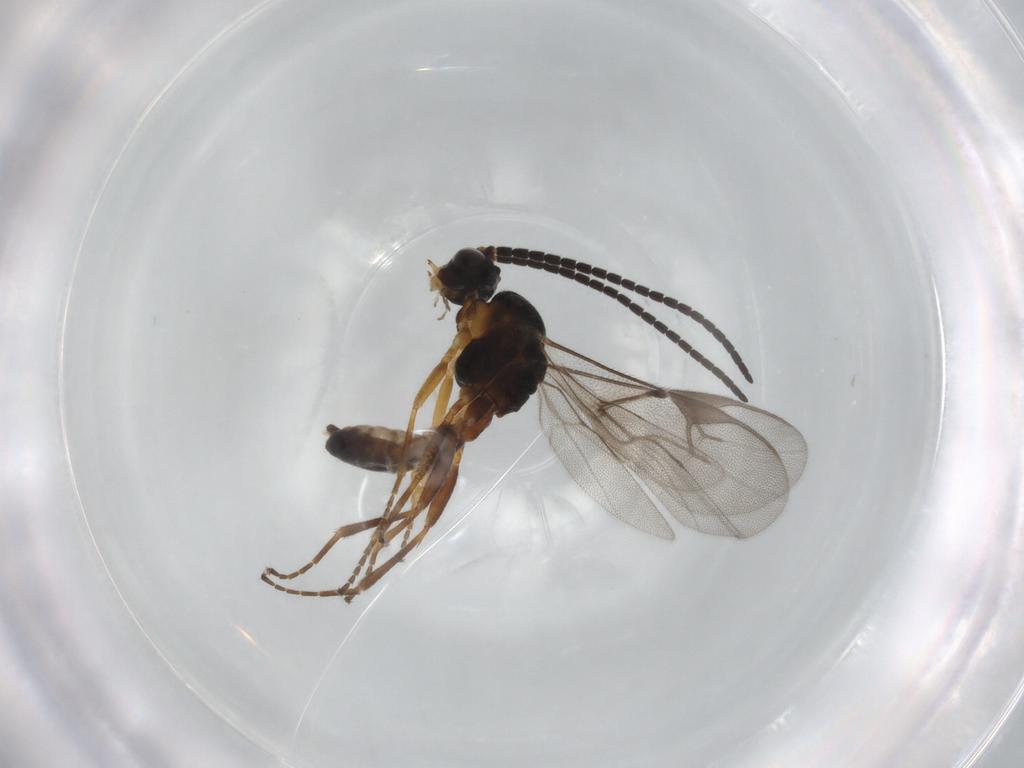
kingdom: Animalia
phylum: Arthropoda
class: Insecta
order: Hymenoptera
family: Braconidae
